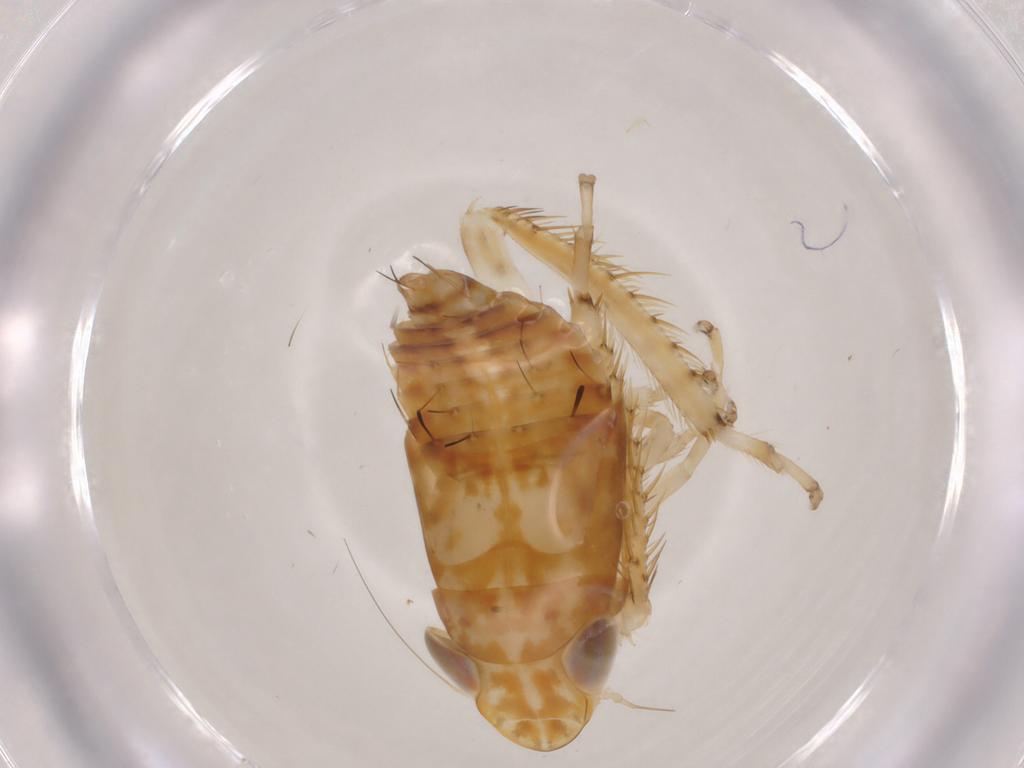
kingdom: Animalia
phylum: Arthropoda
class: Insecta
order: Hemiptera
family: Cicadellidae
